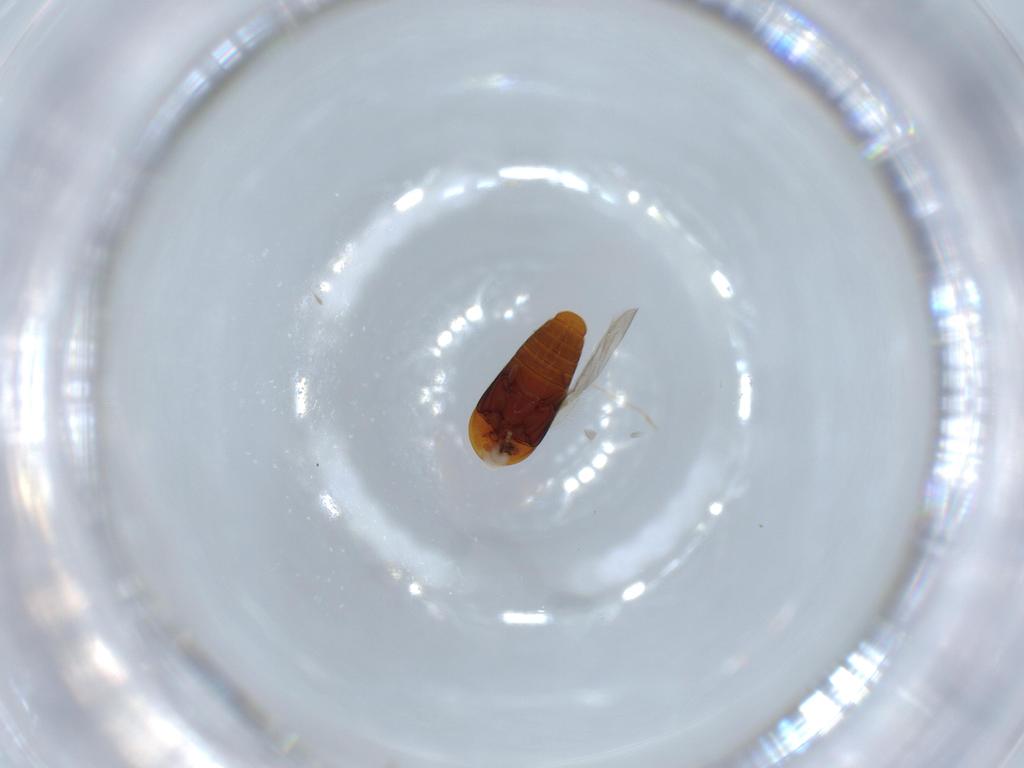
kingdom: Animalia
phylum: Arthropoda
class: Insecta
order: Coleoptera
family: Corylophidae
